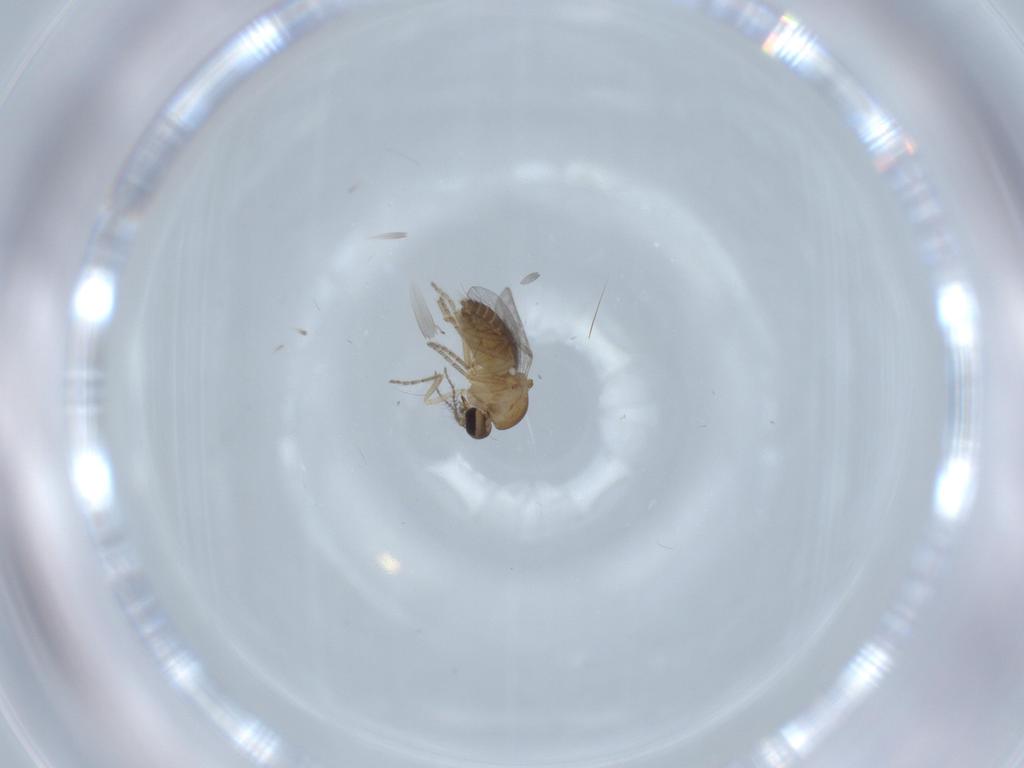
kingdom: Animalia
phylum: Arthropoda
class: Insecta
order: Diptera
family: Ceratopogonidae
